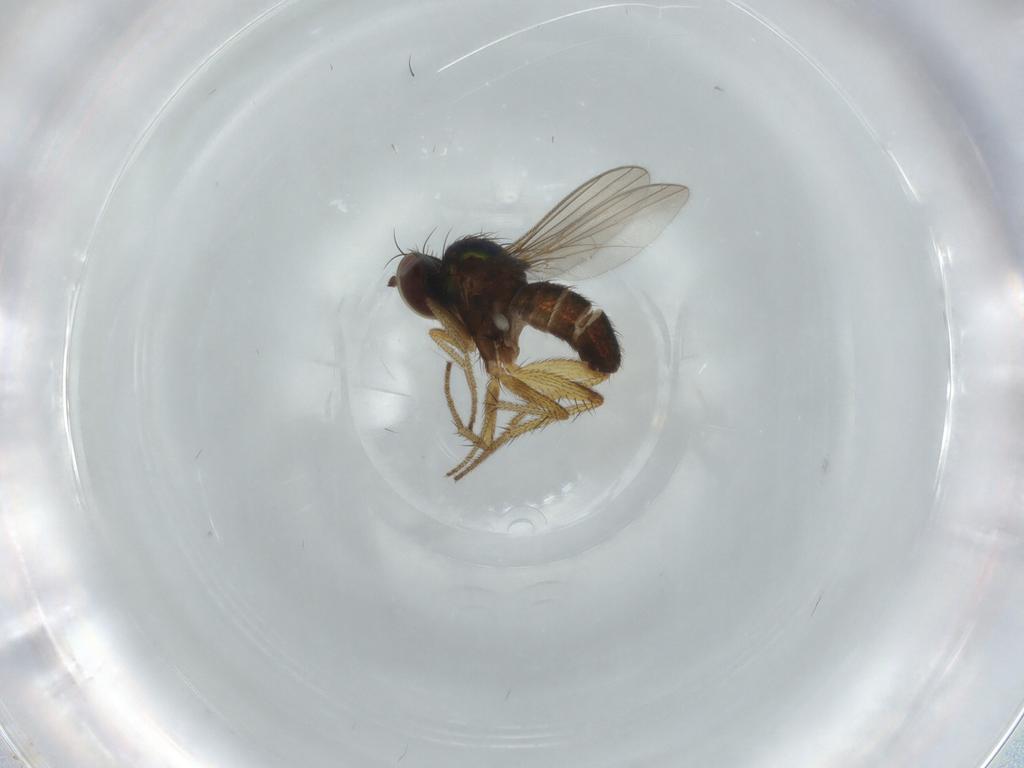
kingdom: Animalia
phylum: Arthropoda
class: Insecta
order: Diptera
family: Dolichopodidae
